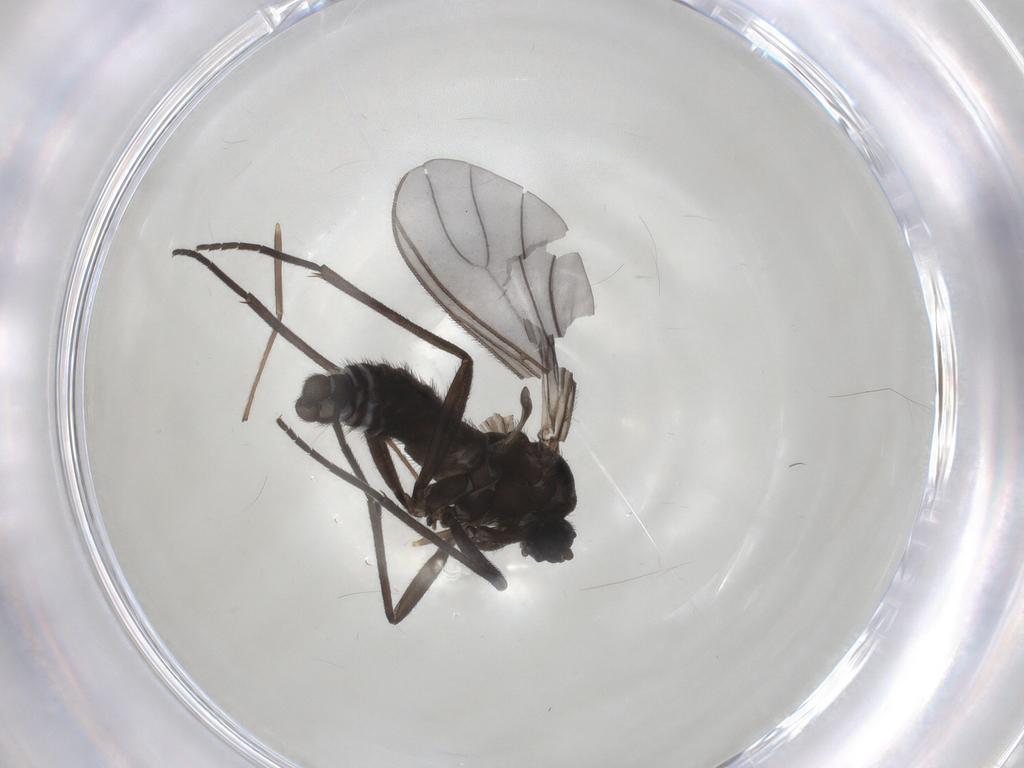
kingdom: Animalia
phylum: Arthropoda
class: Insecta
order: Diptera
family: Sciaridae
